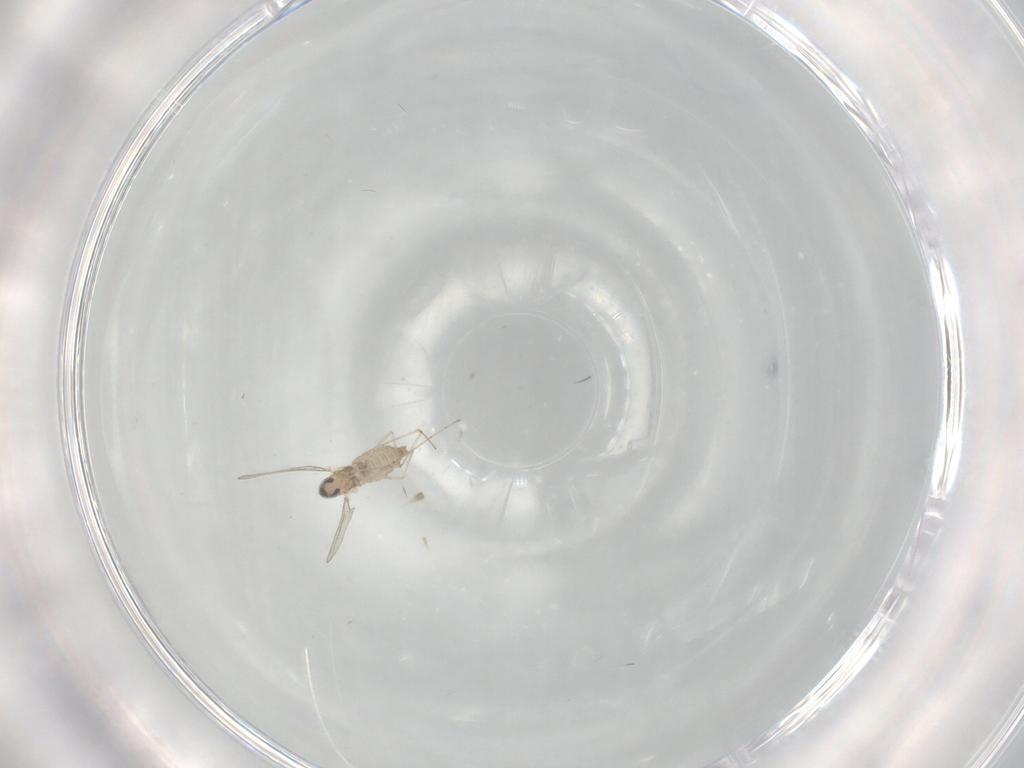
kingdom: Animalia
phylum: Arthropoda
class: Insecta
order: Diptera
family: Cecidomyiidae
